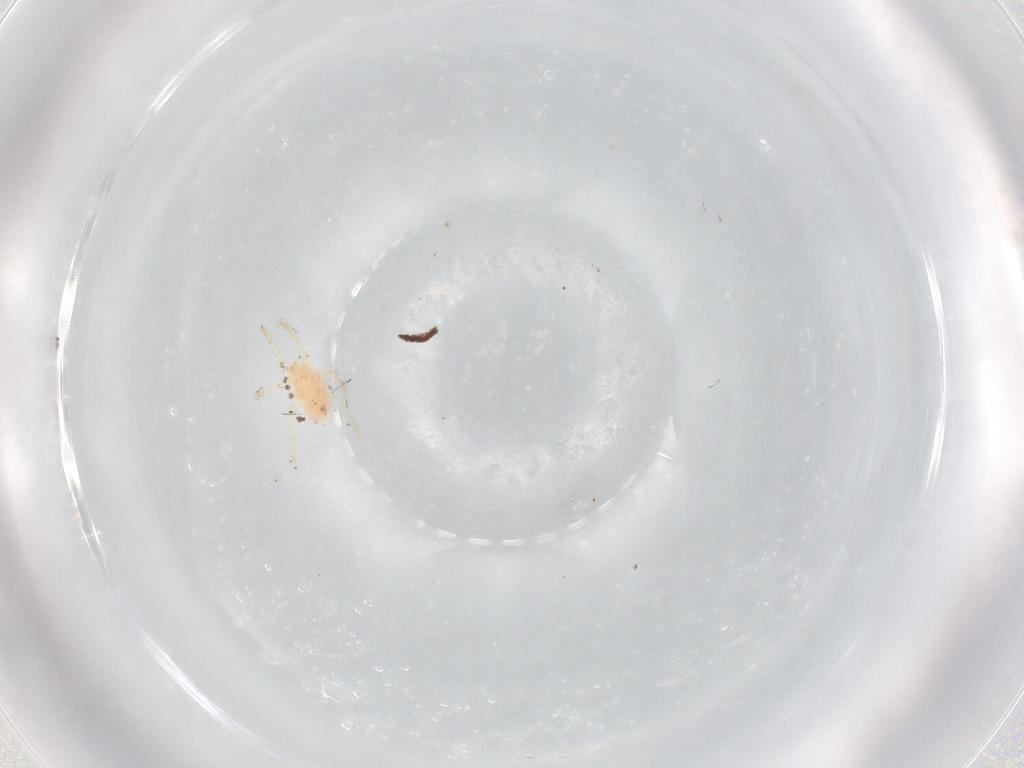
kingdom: Animalia
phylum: Arthropoda
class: Arachnida
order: Trombidiformes
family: Trombidiidae
